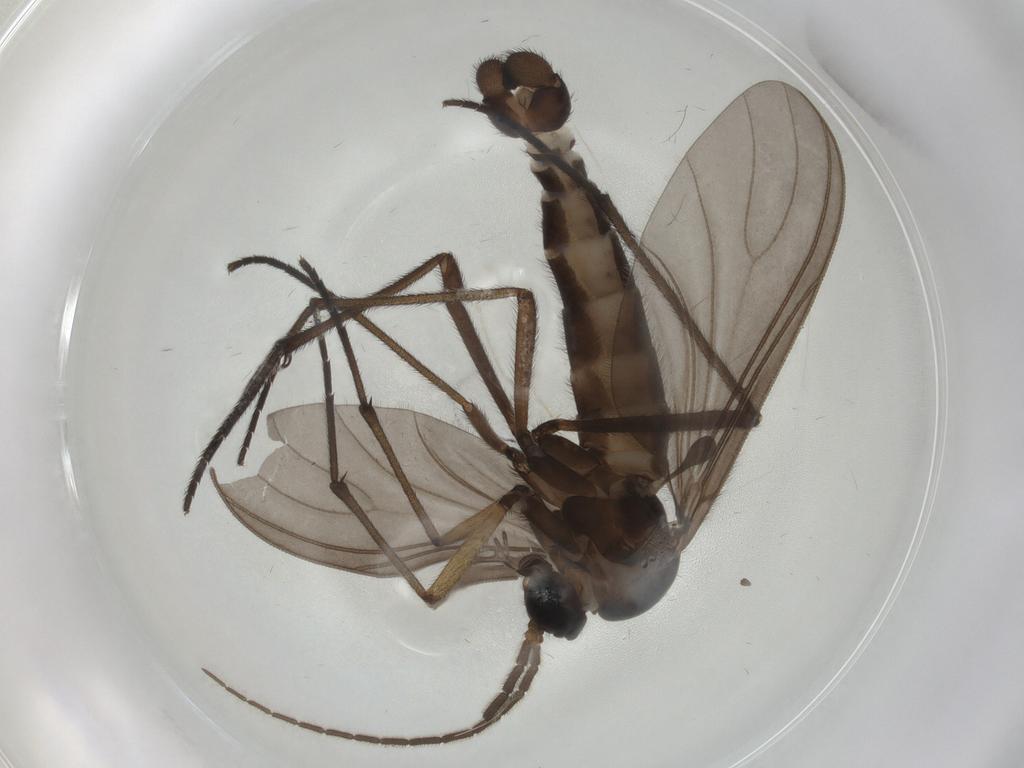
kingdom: Animalia
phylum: Arthropoda
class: Insecta
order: Diptera
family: Sciaridae
